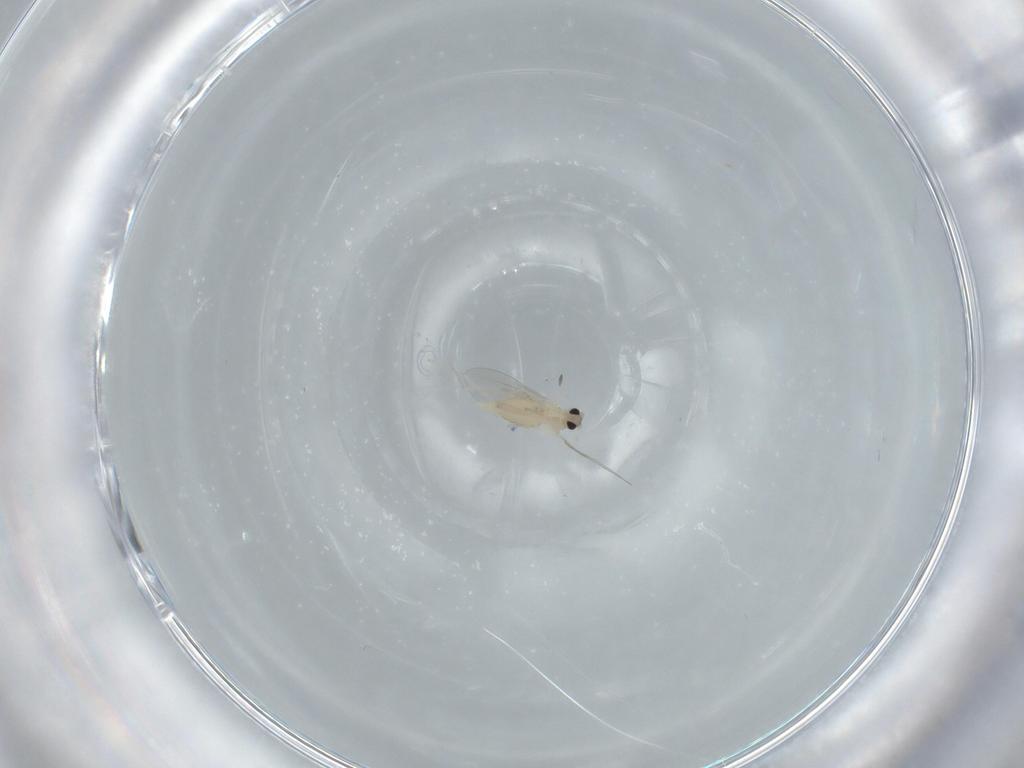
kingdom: Animalia
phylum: Arthropoda
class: Insecta
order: Diptera
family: Cecidomyiidae
